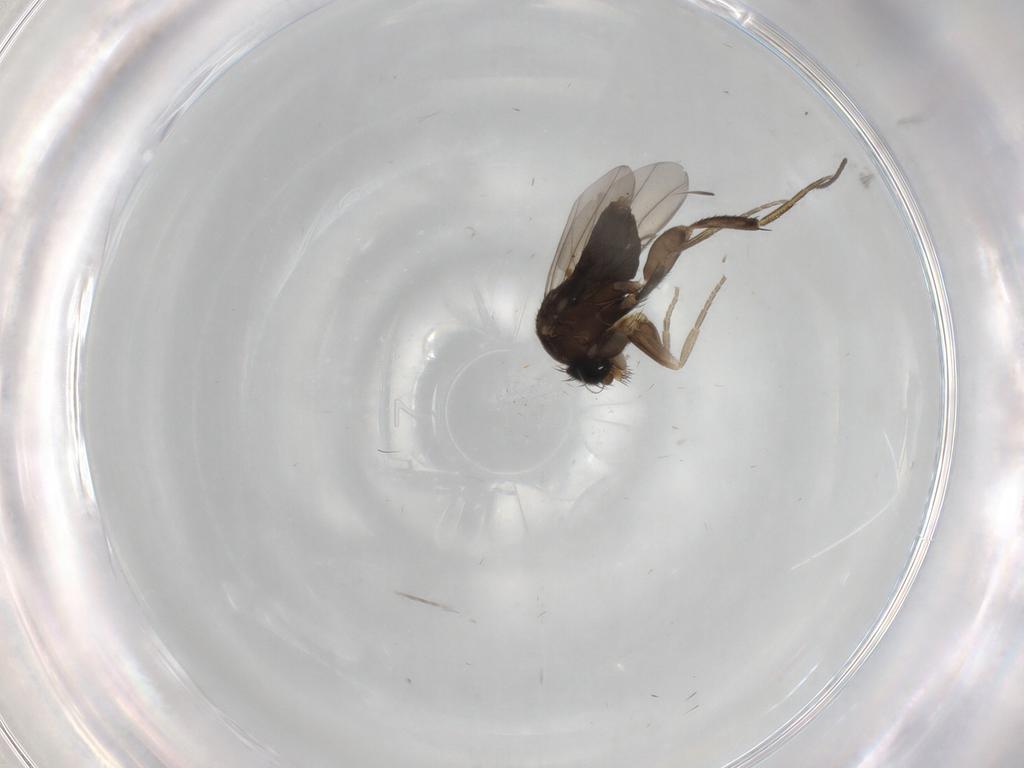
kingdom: Animalia
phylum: Arthropoda
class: Insecta
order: Diptera
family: Phoridae
